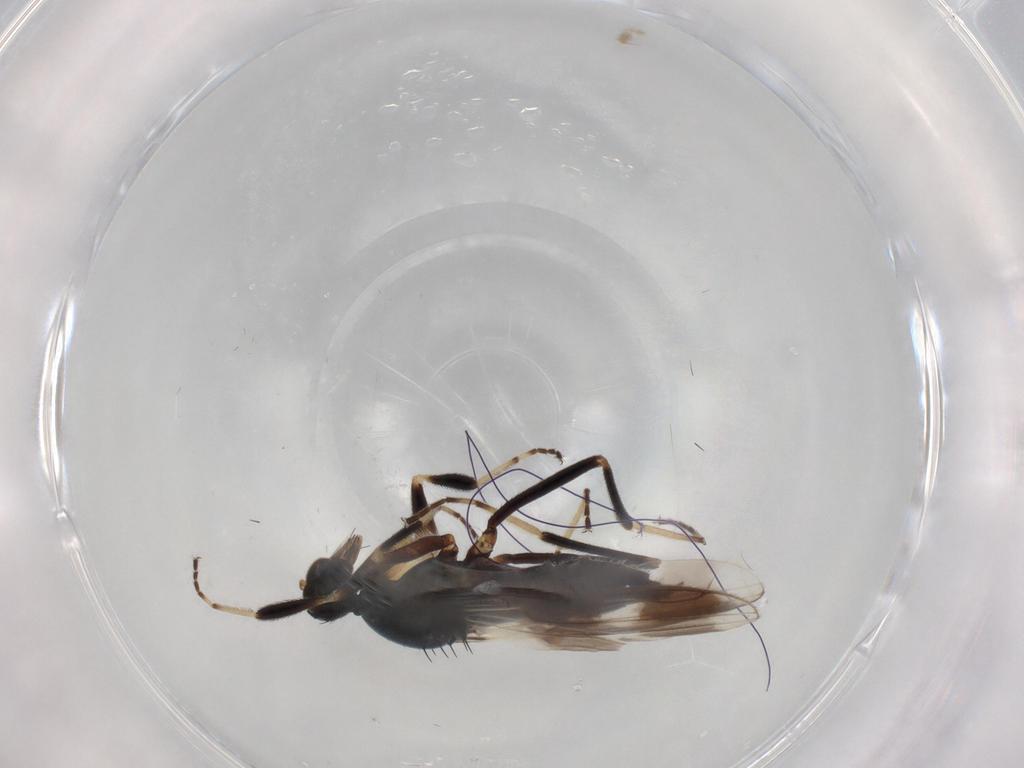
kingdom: Animalia
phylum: Arthropoda
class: Insecta
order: Diptera
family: Hybotidae
